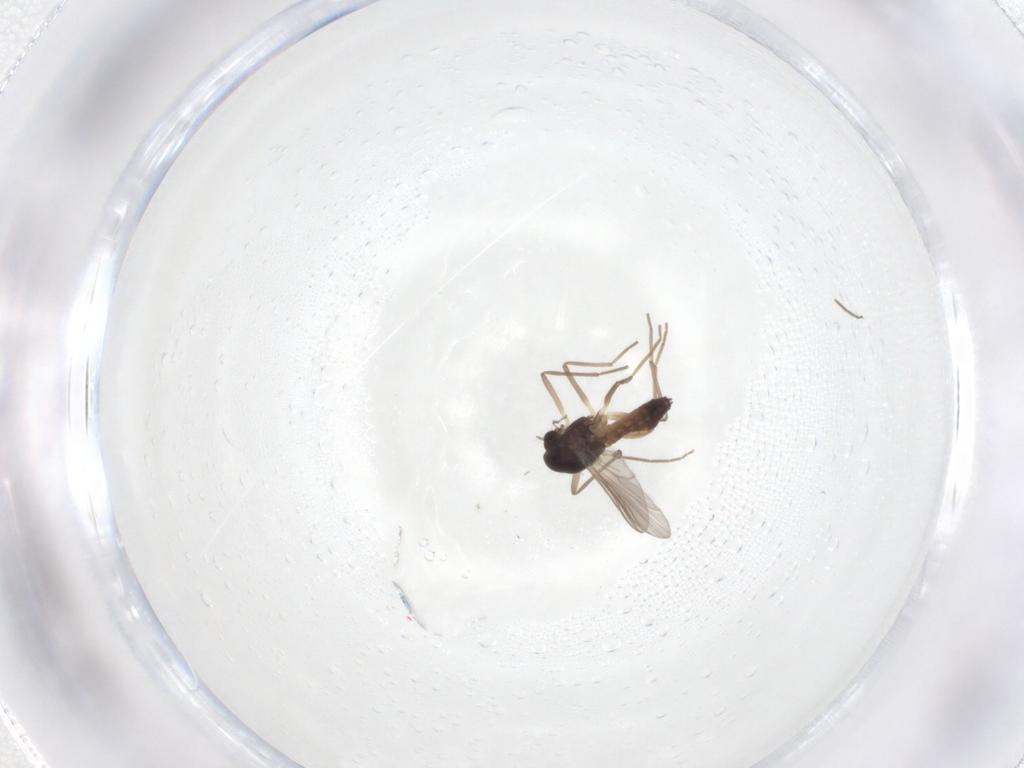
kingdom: Animalia
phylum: Arthropoda
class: Insecta
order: Diptera
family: Chironomidae
